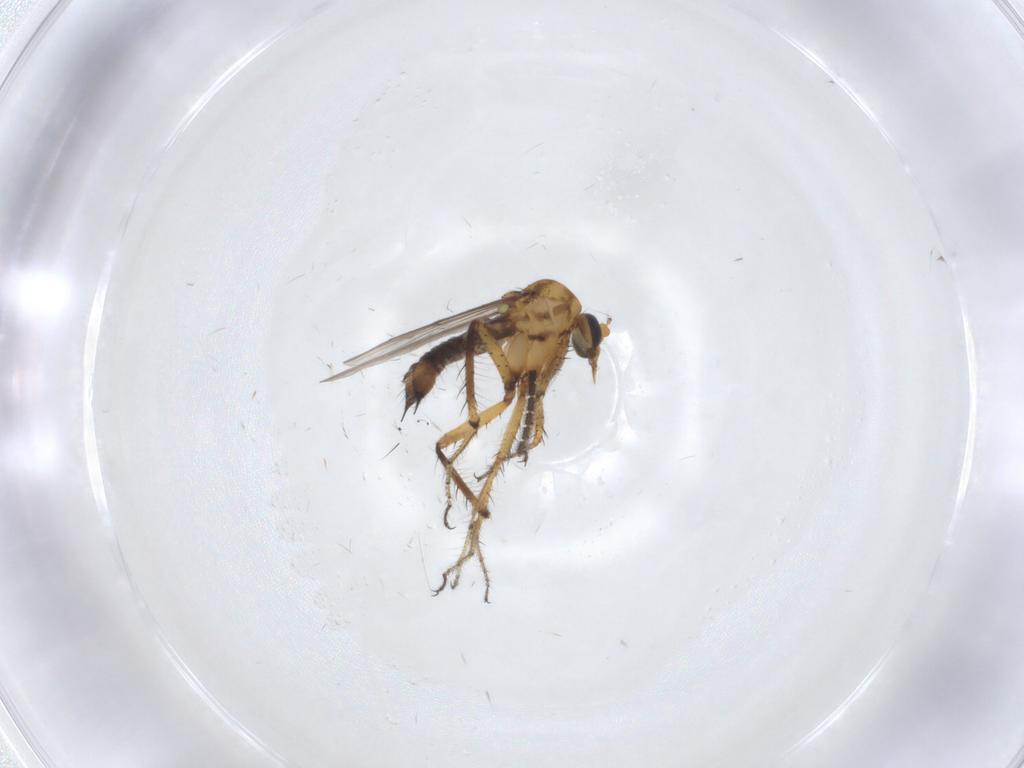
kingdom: Animalia
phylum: Arthropoda
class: Insecta
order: Diptera
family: Ceratopogonidae
